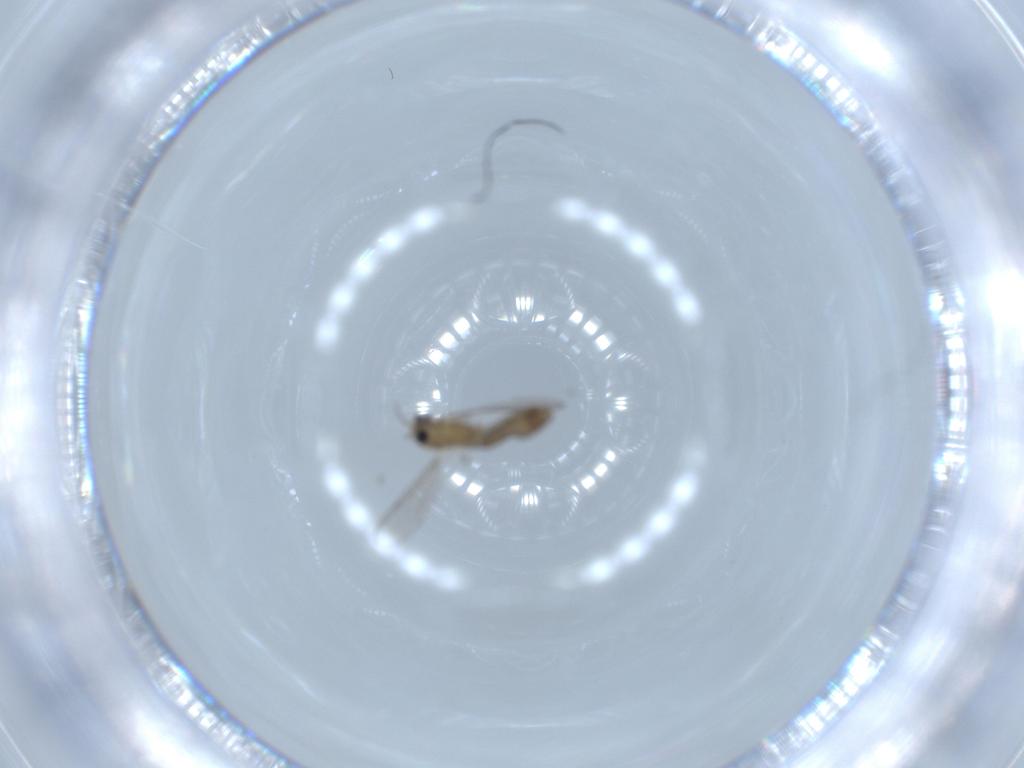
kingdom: Animalia
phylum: Arthropoda
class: Insecta
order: Diptera
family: Chironomidae
